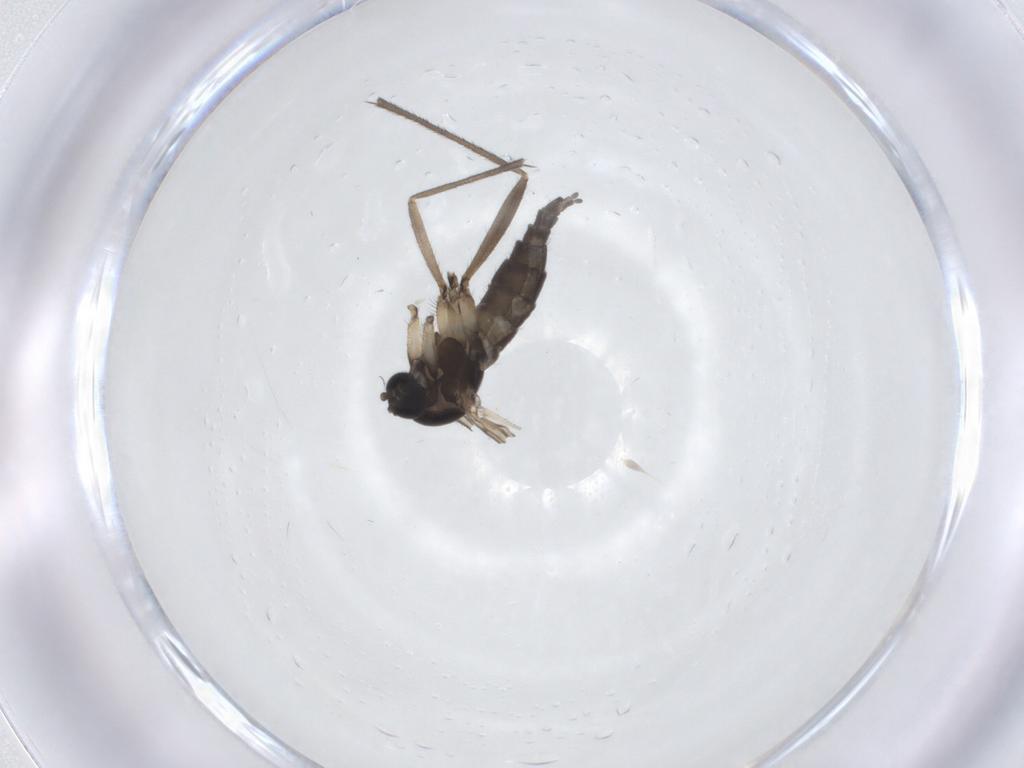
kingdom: Animalia
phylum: Arthropoda
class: Insecta
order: Diptera
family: Sciaridae
